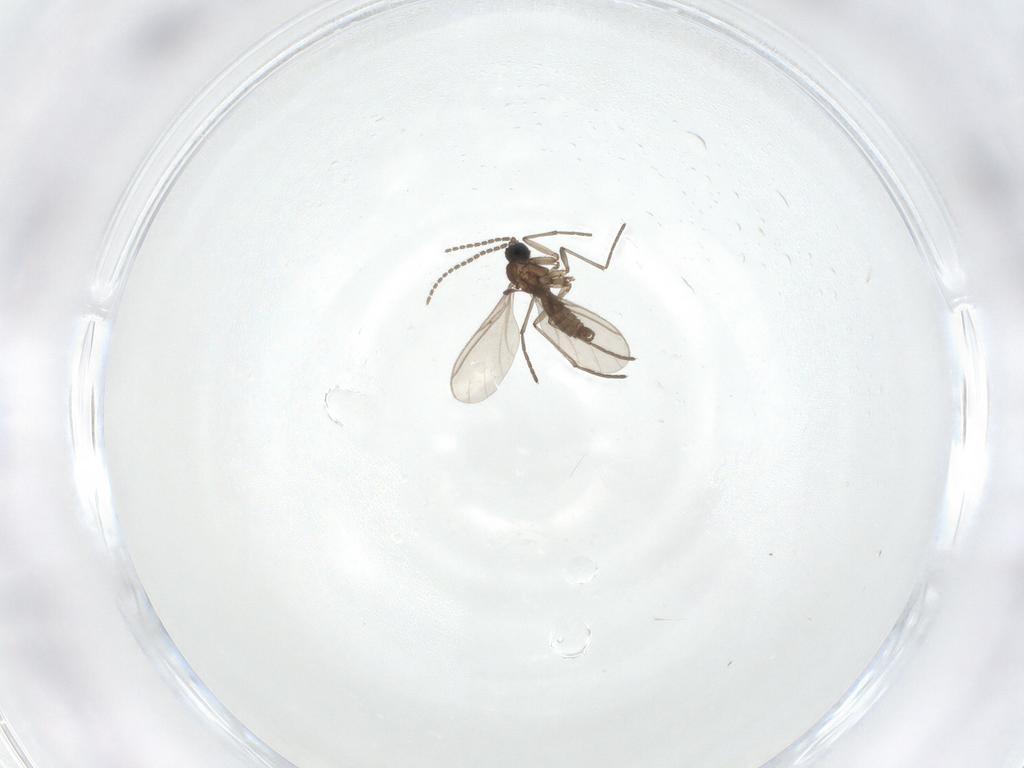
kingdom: Animalia
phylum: Arthropoda
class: Insecta
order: Diptera
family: Sciaridae
